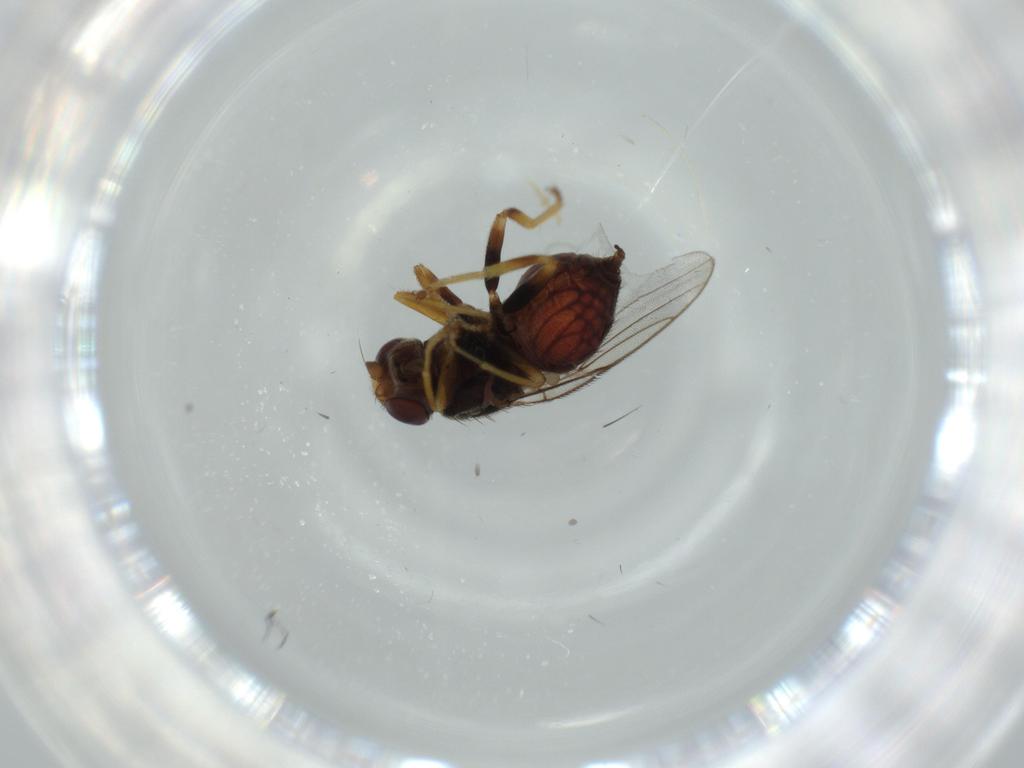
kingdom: Animalia
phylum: Arthropoda
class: Insecta
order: Diptera
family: Chloropidae
